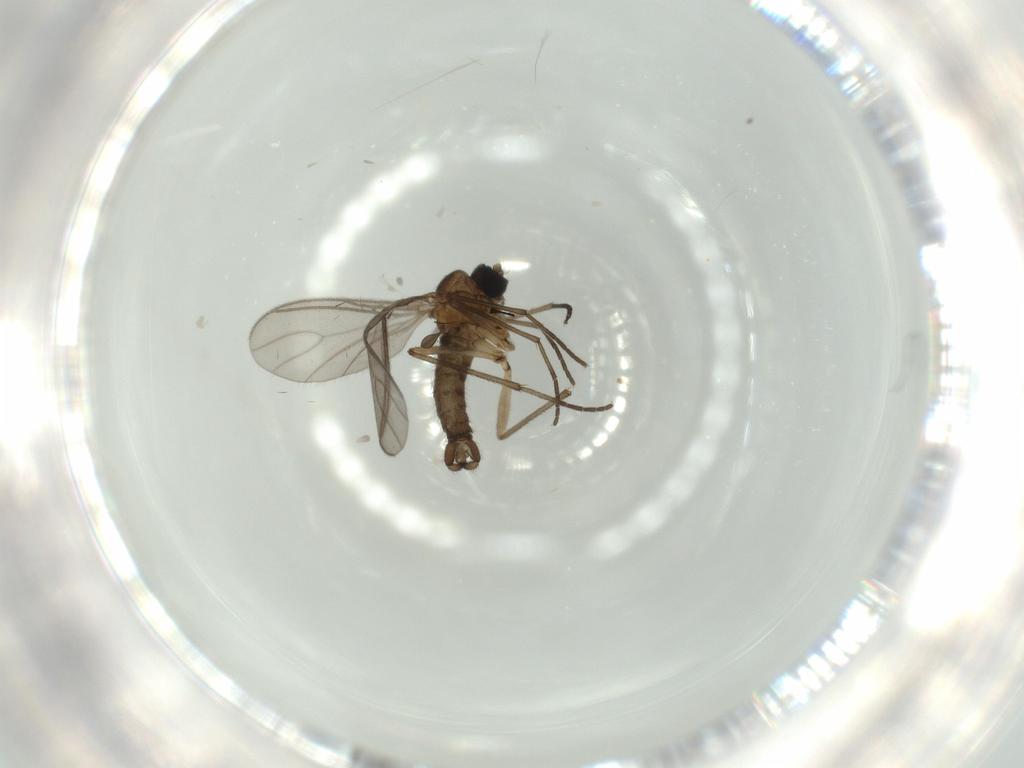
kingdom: Animalia
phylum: Arthropoda
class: Insecta
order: Diptera
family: Sciaridae
